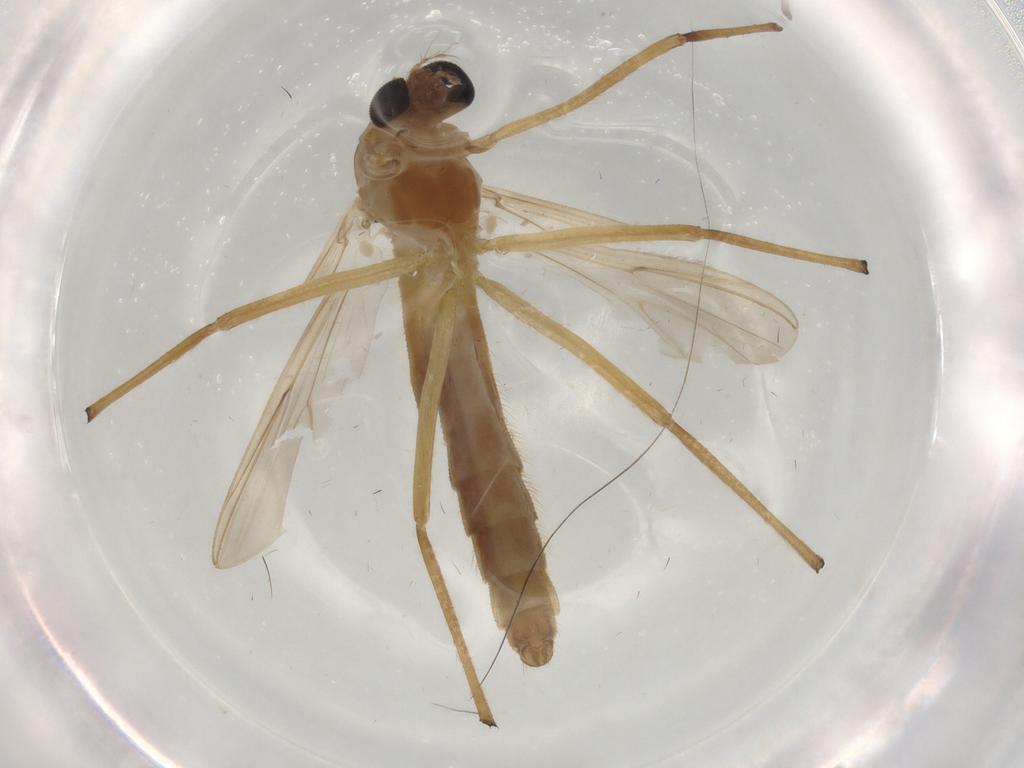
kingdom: Animalia
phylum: Arthropoda
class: Insecta
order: Diptera
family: Chironomidae
